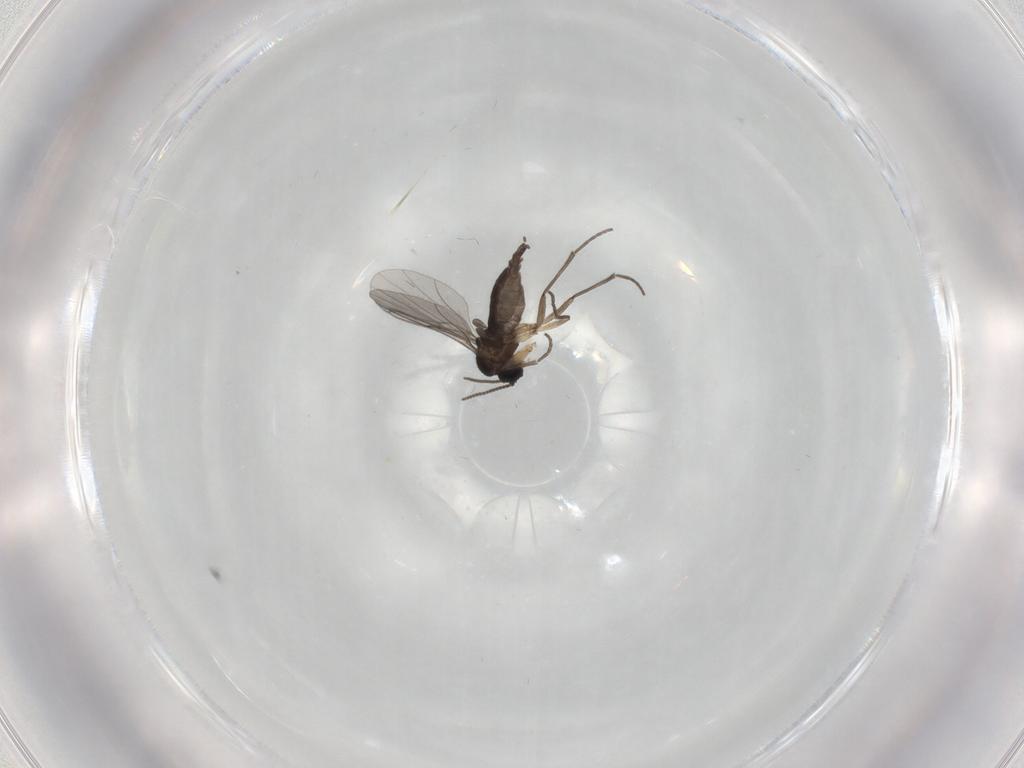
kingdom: Animalia
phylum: Arthropoda
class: Insecta
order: Diptera
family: Sciaridae
